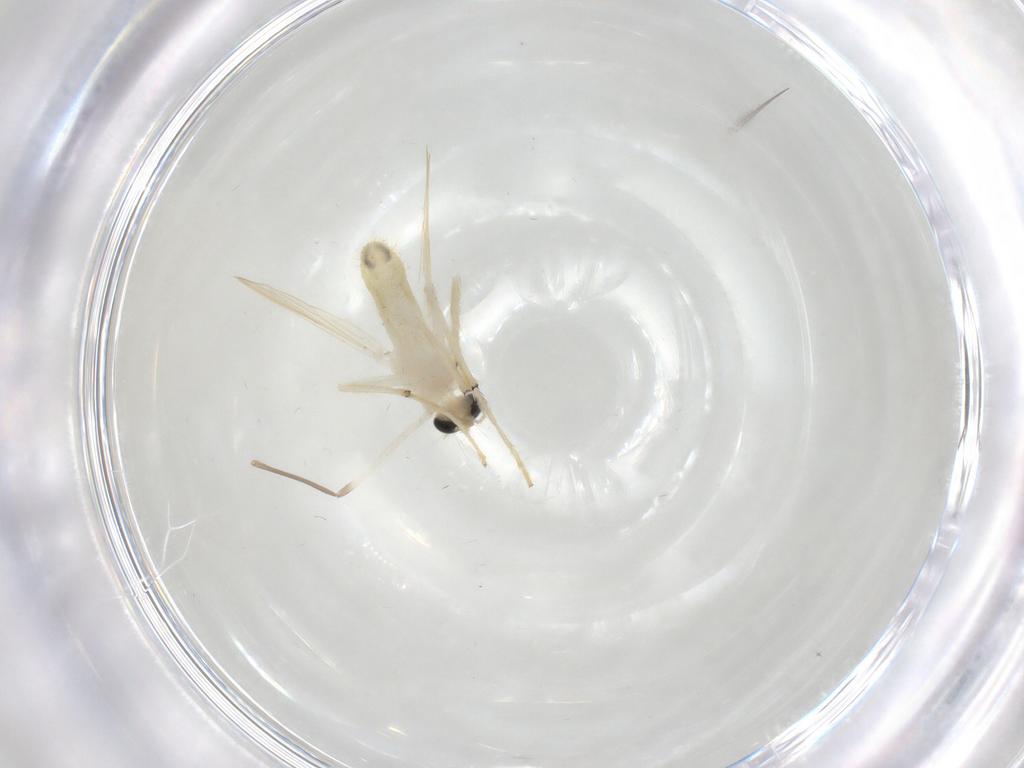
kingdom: Animalia
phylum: Arthropoda
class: Insecta
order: Diptera
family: Chironomidae
